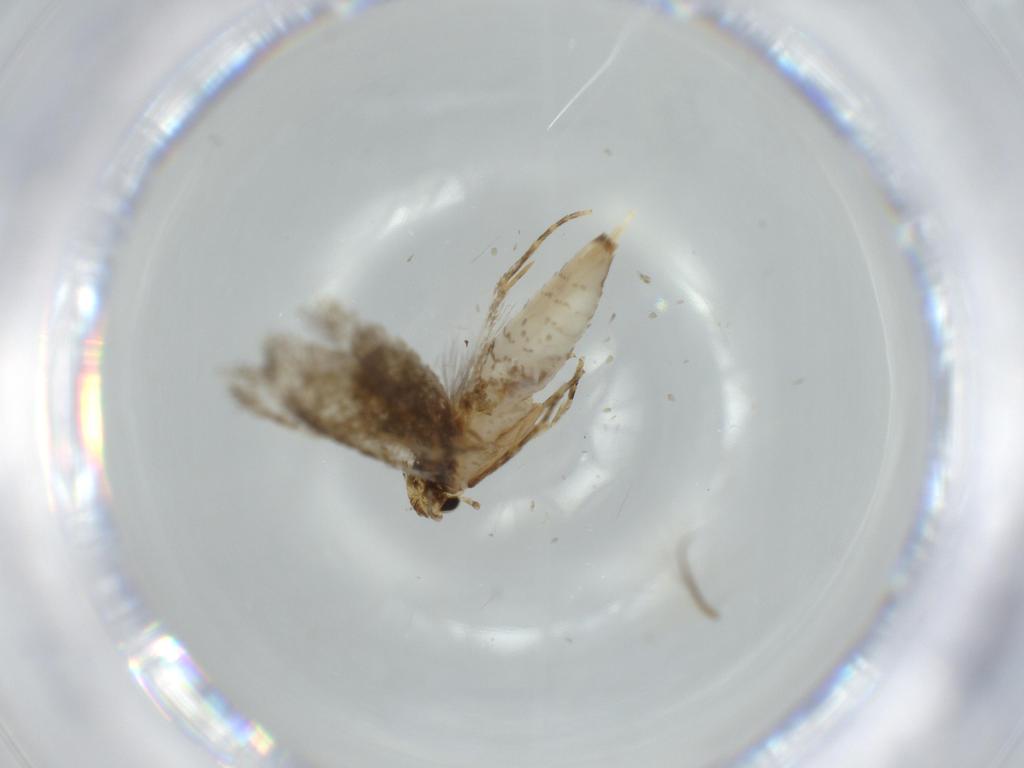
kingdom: Animalia
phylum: Arthropoda
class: Insecta
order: Lepidoptera
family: Tineidae
